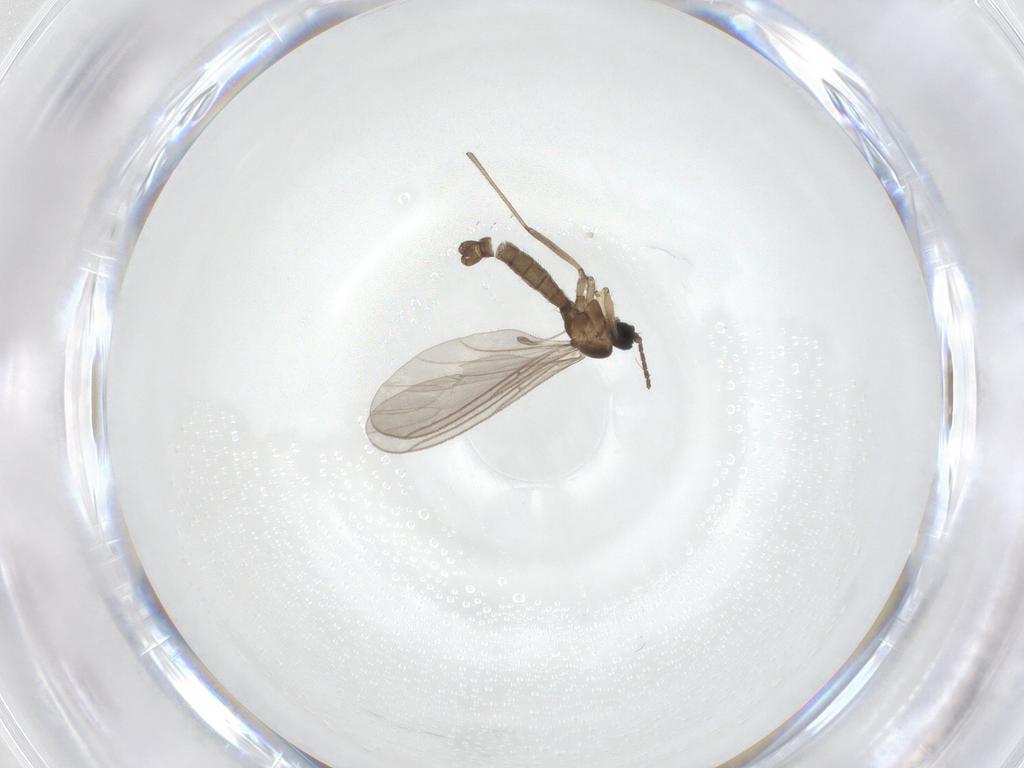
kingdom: Animalia
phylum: Arthropoda
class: Insecta
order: Diptera
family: Sciaridae
